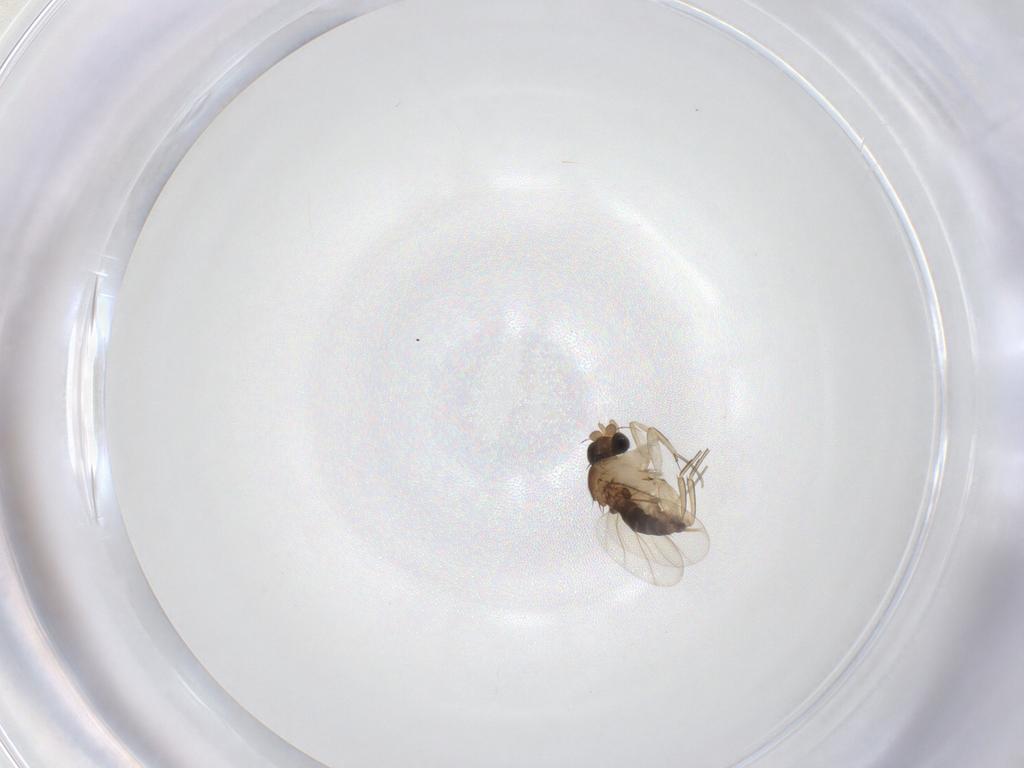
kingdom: Animalia
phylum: Arthropoda
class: Insecta
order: Diptera
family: Phoridae
